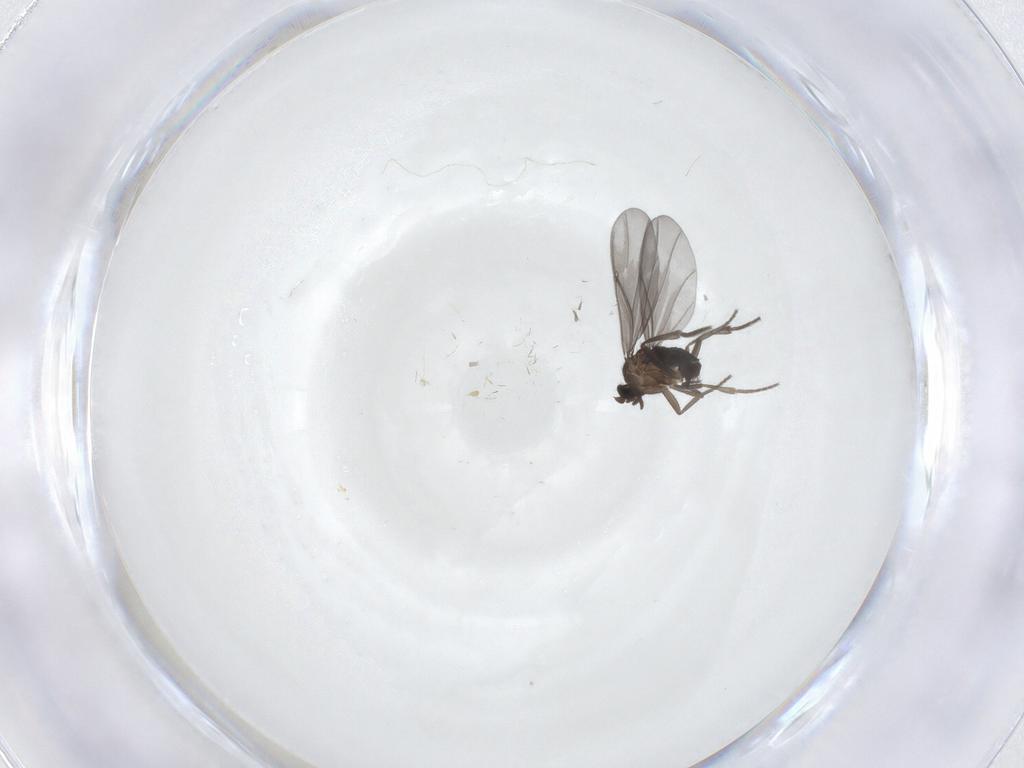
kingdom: Animalia
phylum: Arthropoda
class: Insecta
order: Diptera
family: Phoridae
